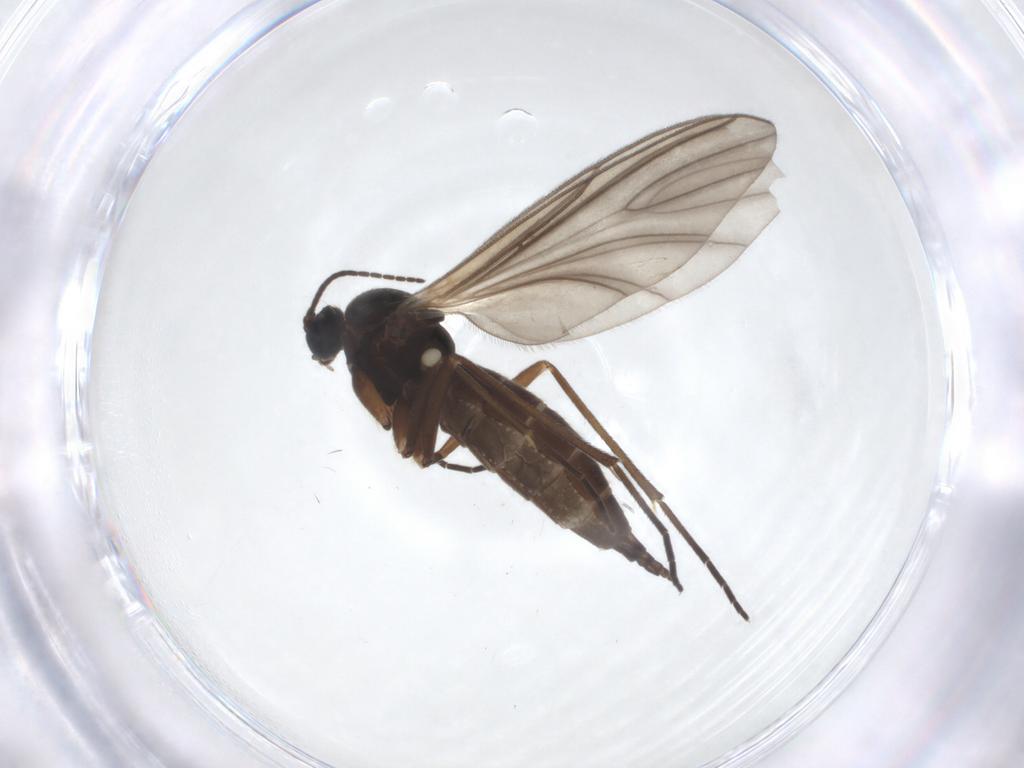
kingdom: Animalia
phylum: Arthropoda
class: Insecta
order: Diptera
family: Sciaridae
